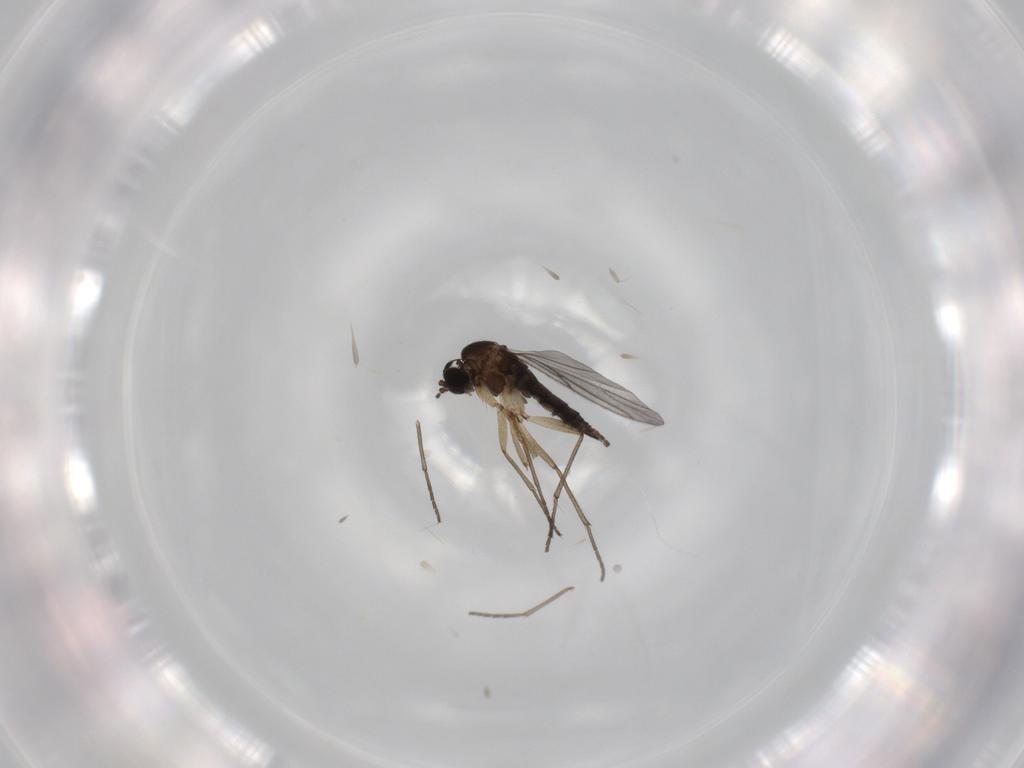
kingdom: Animalia
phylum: Arthropoda
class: Insecta
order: Diptera
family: Sciaridae
